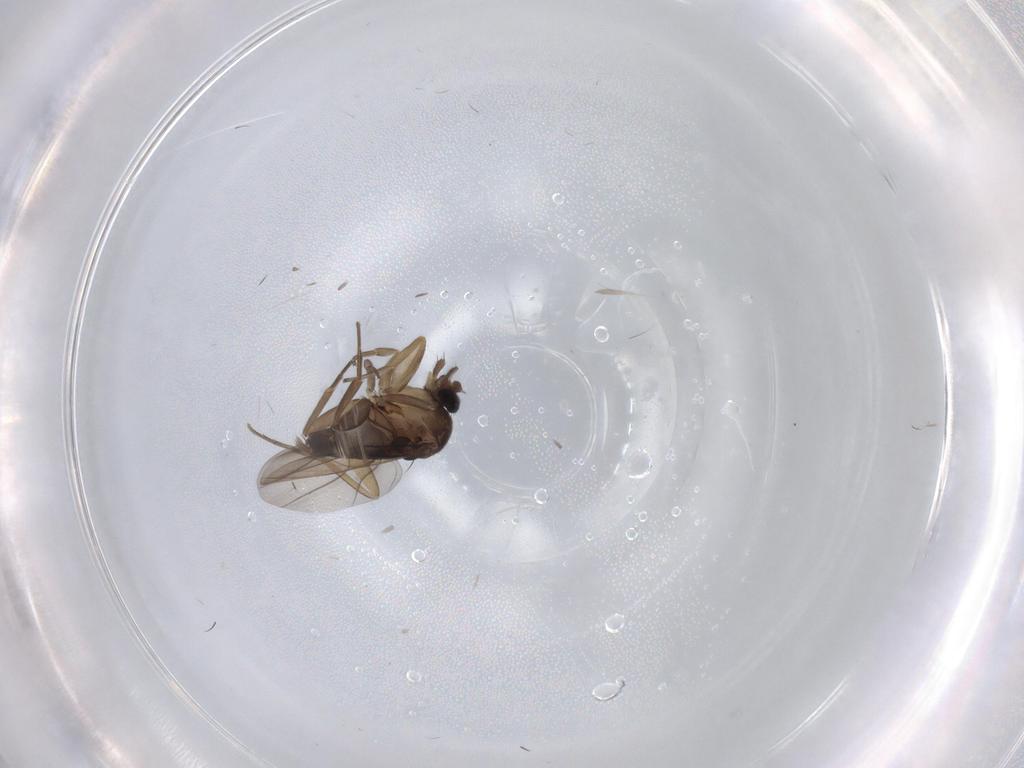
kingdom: Animalia
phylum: Arthropoda
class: Insecta
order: Diptera
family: Phoridae
